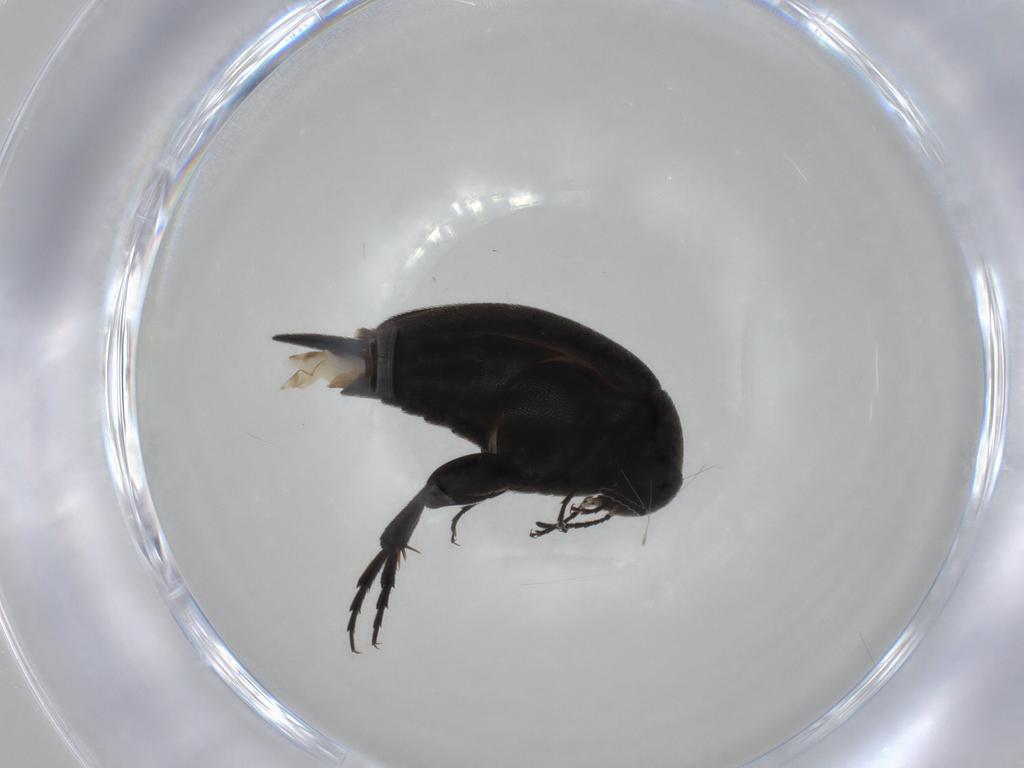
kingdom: Animalia
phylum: Arthropoda
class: Insecta
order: Coleoptera
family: Mordellidae
